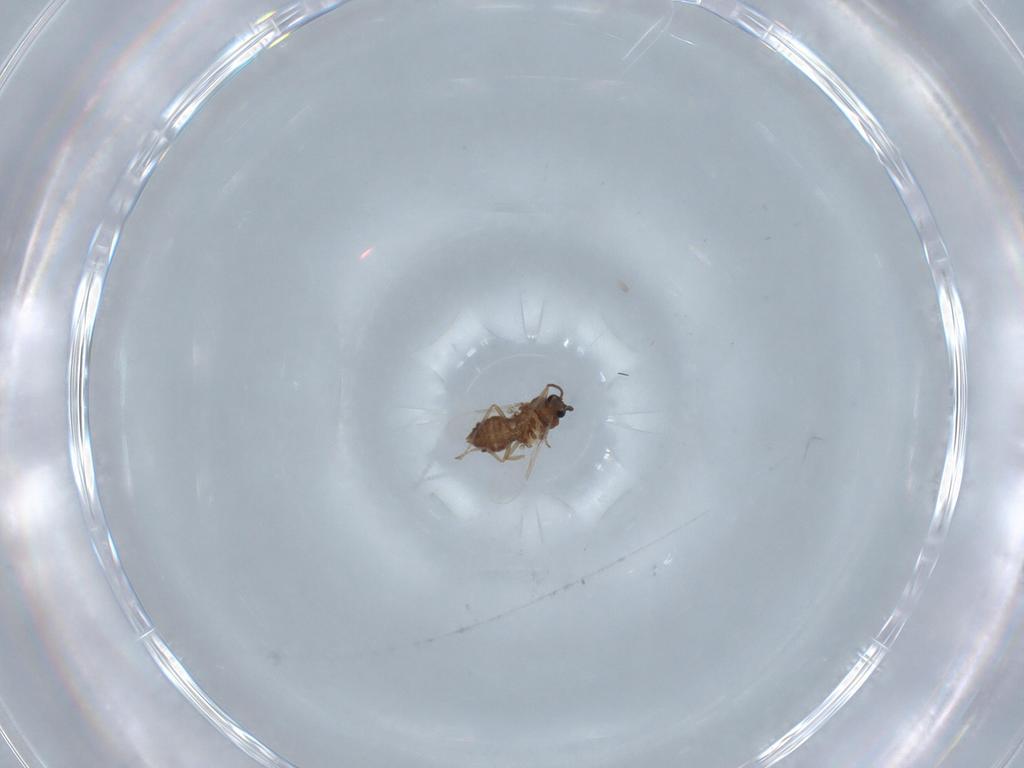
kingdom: Animalia
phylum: Arthropoda
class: Insecta
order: Diptera
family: Ceratopogonidae
